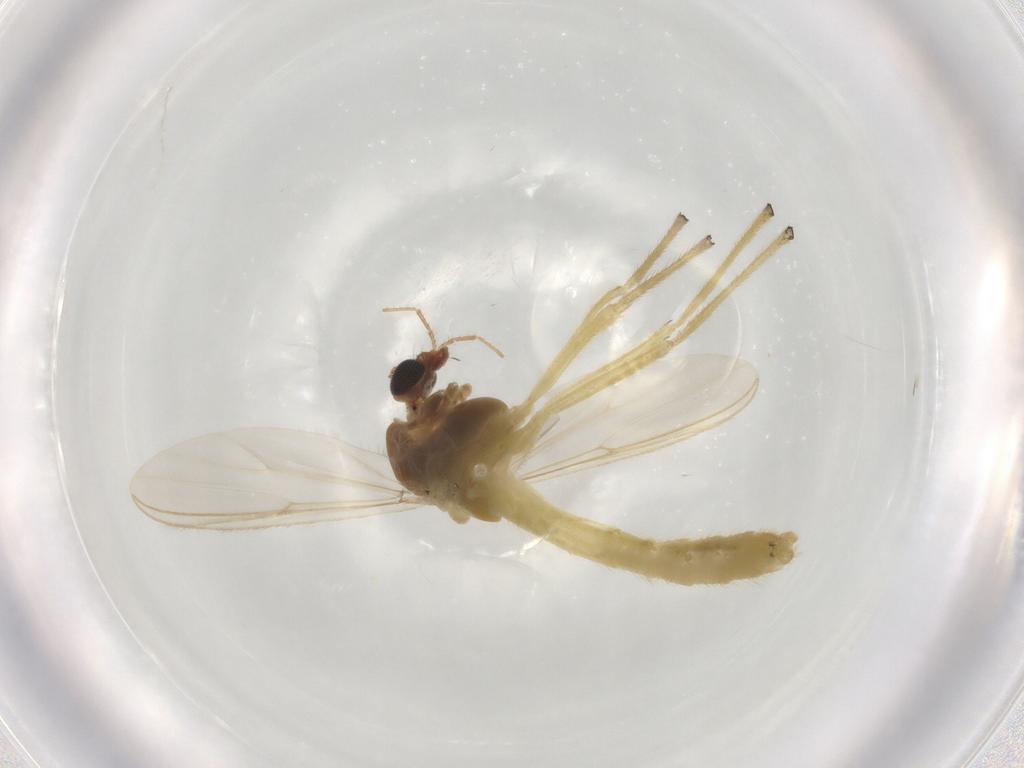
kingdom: Animalia
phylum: Arthropoda
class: Insecta
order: Diptera
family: Chironomidae
